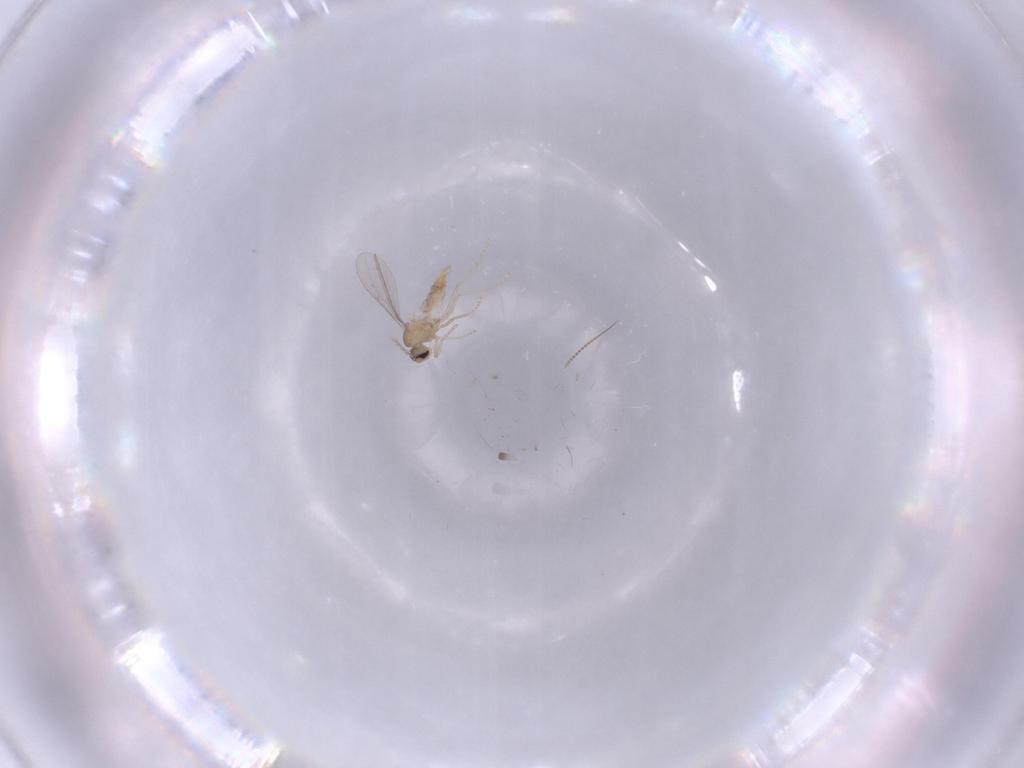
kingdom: Animalia
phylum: Arthropoda
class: Insecta
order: Diptera
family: Cecidomyiidae
